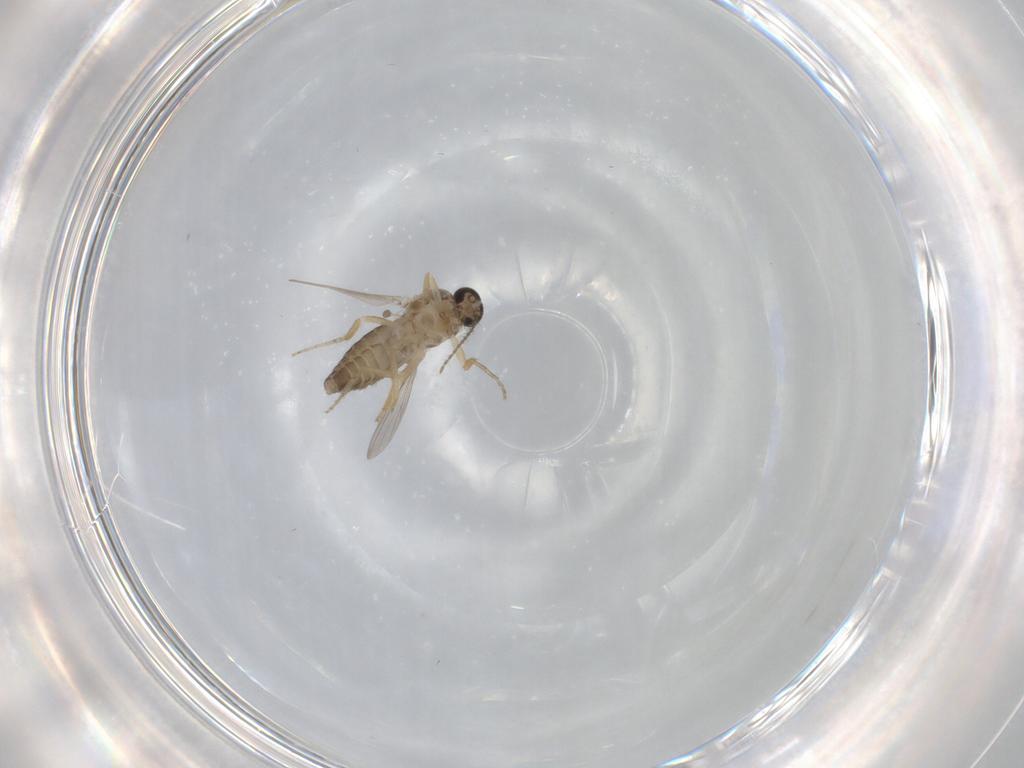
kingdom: Animalia
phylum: Arthropoda
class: Insecta
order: Diptera
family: Ceratopogonidae
